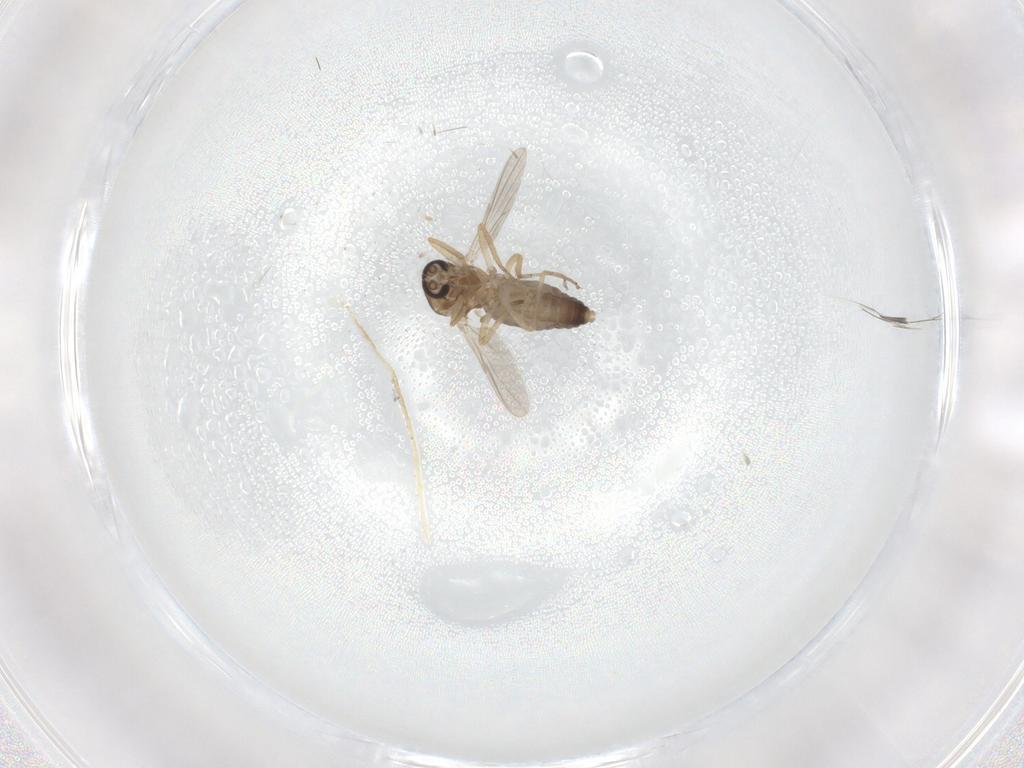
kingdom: Animalia
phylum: Arthropoda
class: Insecta
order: Diptera
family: Ceratopogonidae
